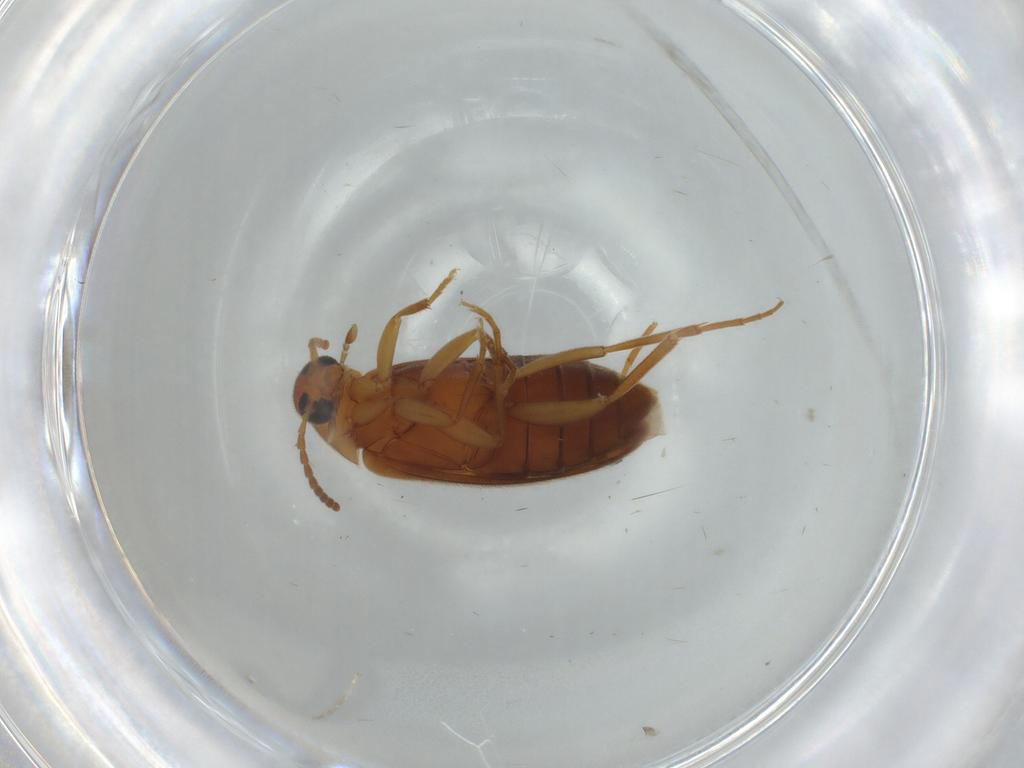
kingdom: Animalia
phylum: Arthropoda
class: Insecta
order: Coleoptera
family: Scraptiidae
